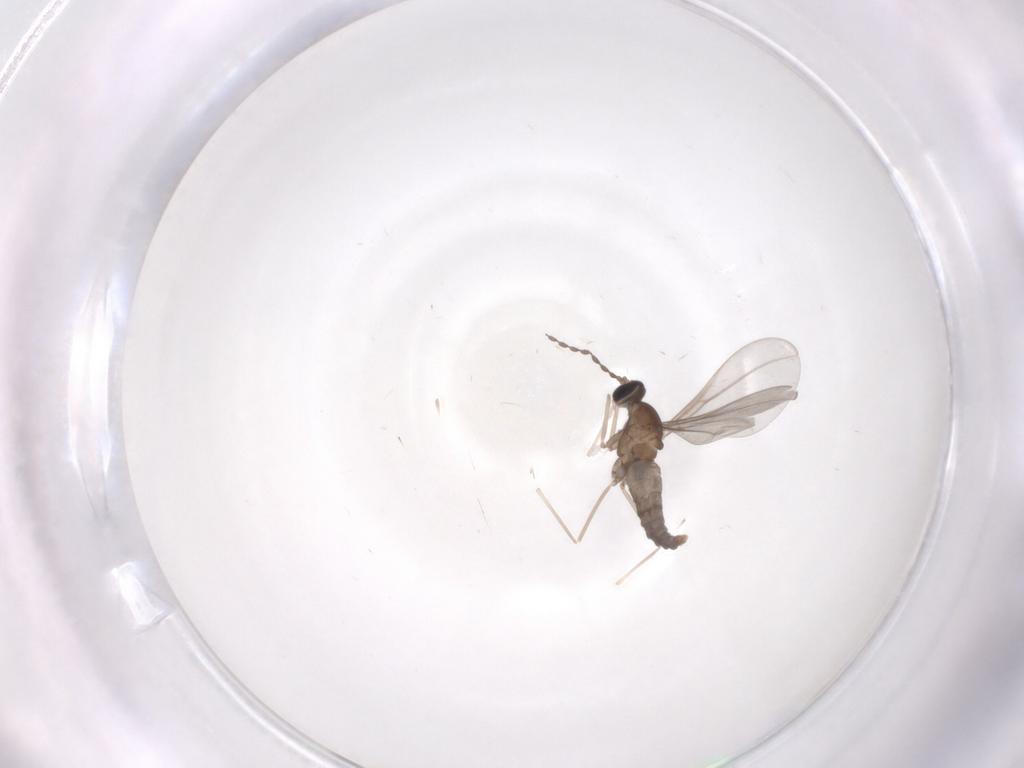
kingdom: Animalia
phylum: Arthropoda
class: Insecta
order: Diptera
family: Cecidomyiidae
